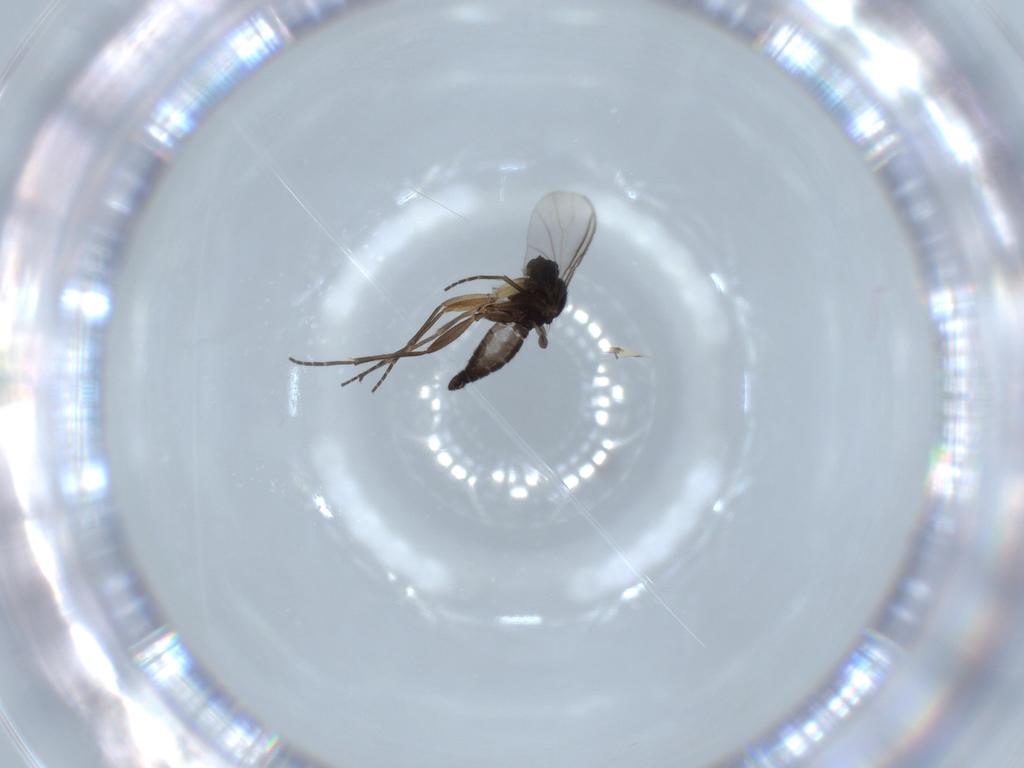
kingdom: Animalia
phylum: Arthropoda
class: Insecta
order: Diptera
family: Sciaridae
